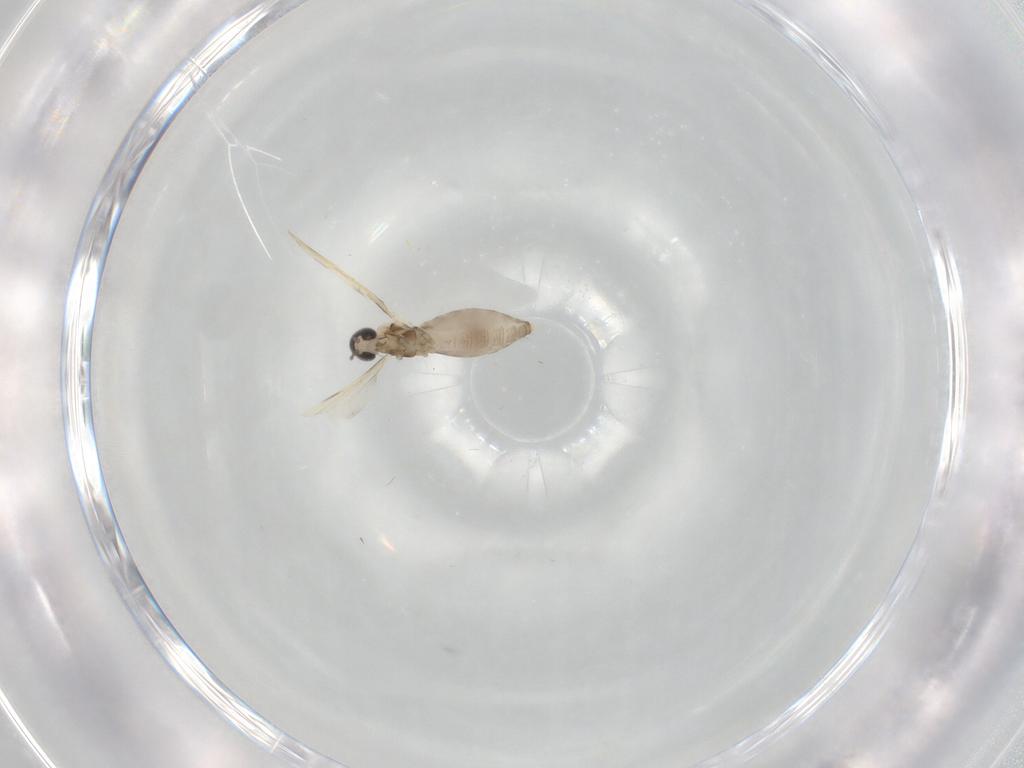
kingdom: Animalia
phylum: Arthropoda
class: Insecta
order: Diptera
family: Cecidomyiidae
